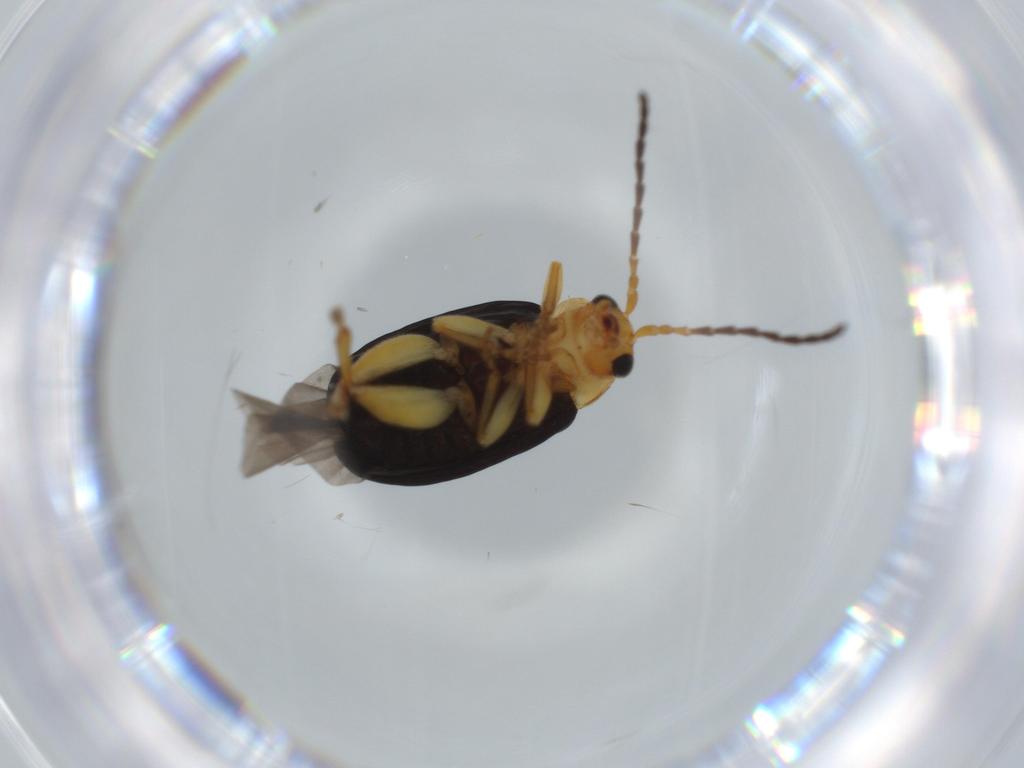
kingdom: Animalia
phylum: Arthropoda
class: Insecta
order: Coleoptera
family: Chrysomelidae
